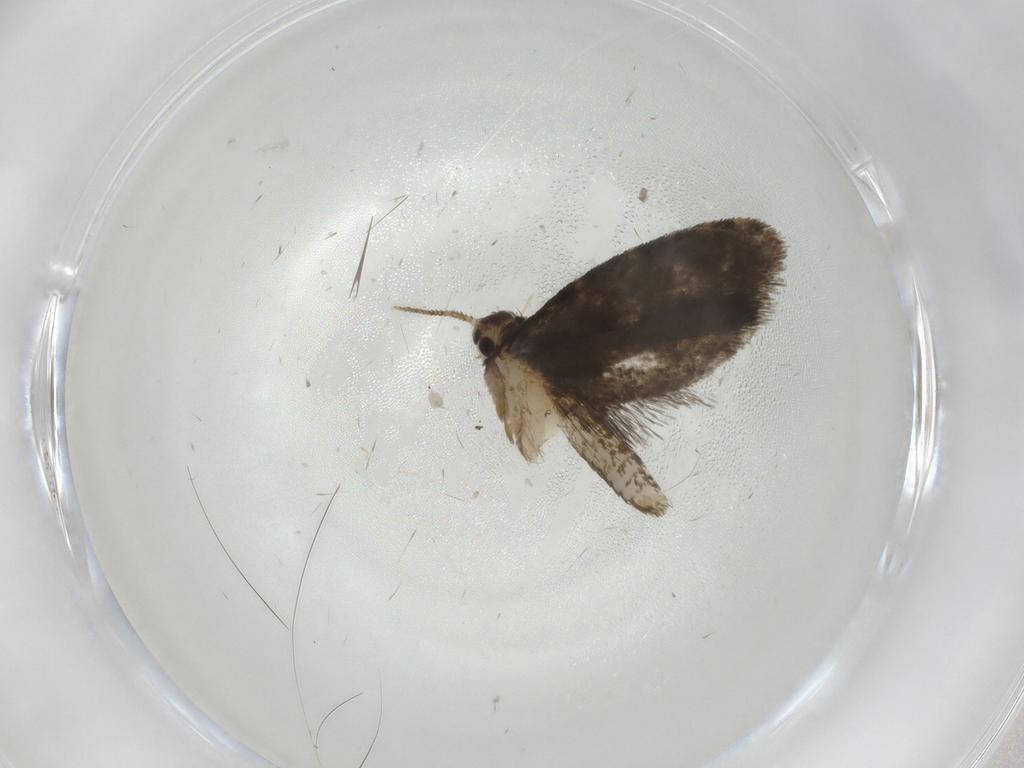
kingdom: Animalia
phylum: Arthropoda
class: Insecta
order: Lepidoptera
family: Psychidae
